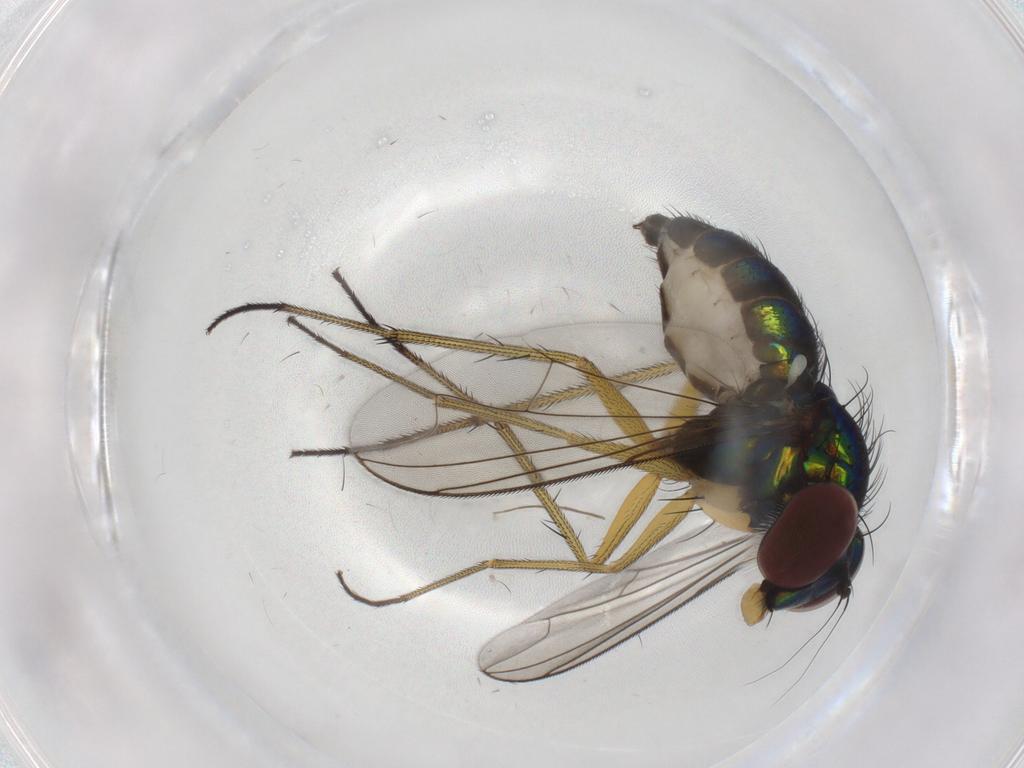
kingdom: Animalia
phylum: Arthropoda
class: Insecta
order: Diptera
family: Dolichopodidae
